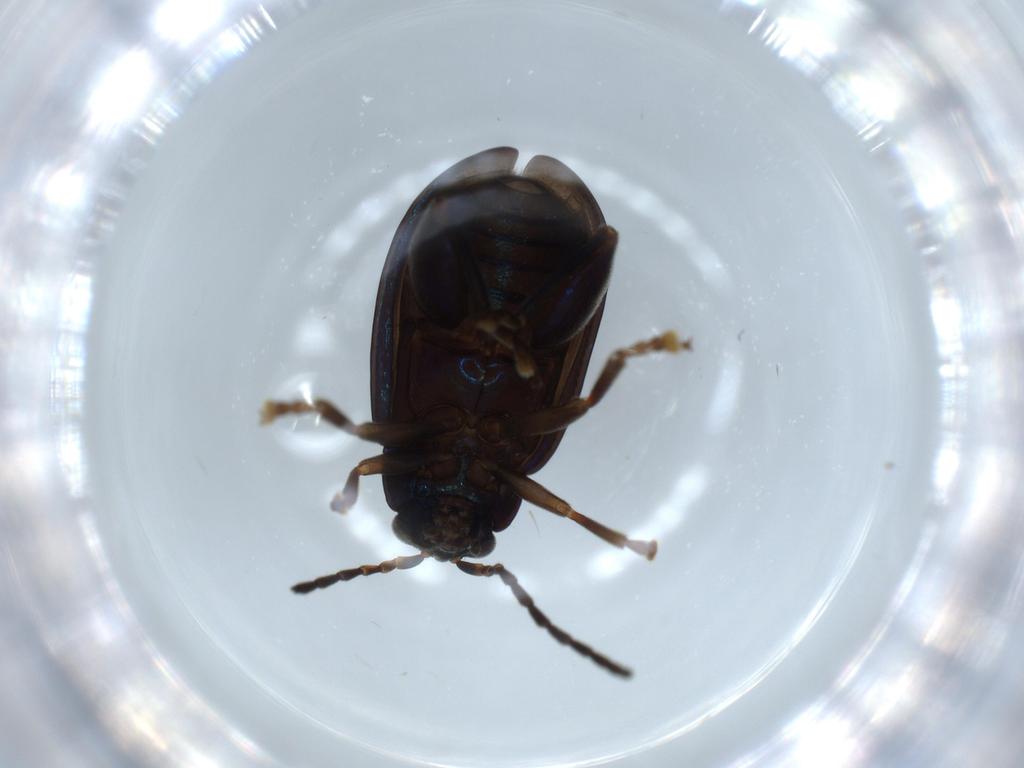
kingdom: Animalia
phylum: Arthropoda
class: Insecta
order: Coleoptera
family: Chrysomelidae
